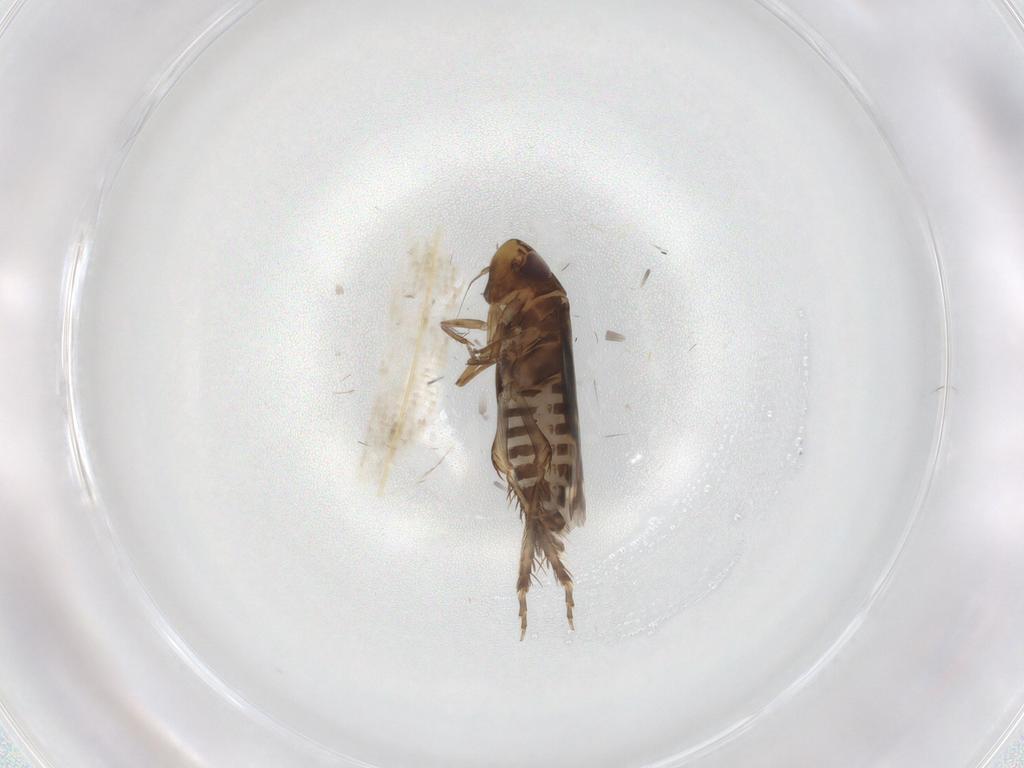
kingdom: Animalia
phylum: Arthropoda
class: Insecta
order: Hemiptera
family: Cicadellidae
